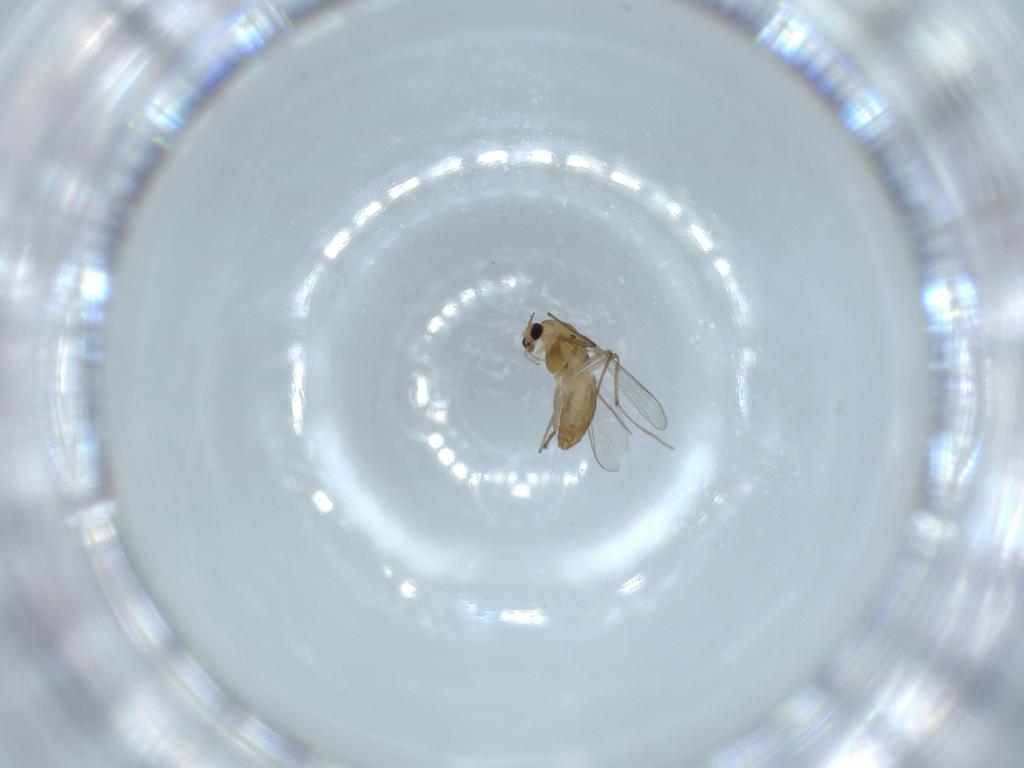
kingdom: Animalia
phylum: Arthropoda
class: Insecta
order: Diptera
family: Chironomidae
